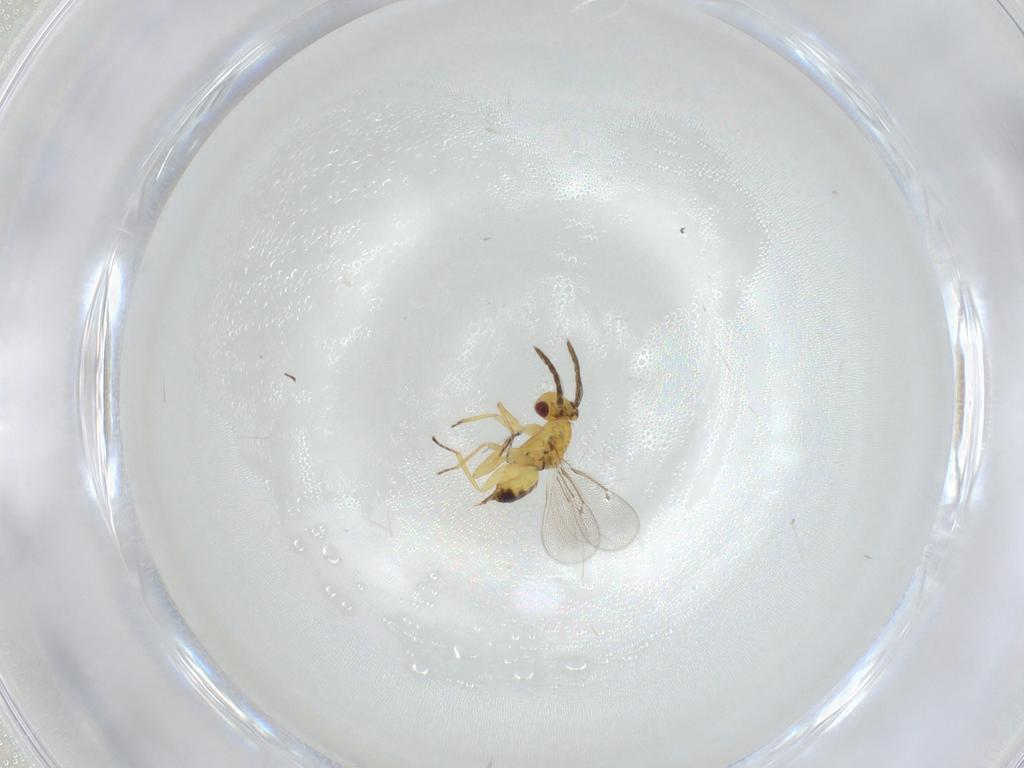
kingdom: Animalia
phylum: Arthropoda
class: Insecta
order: Hymenoptera
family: Eulophidae
